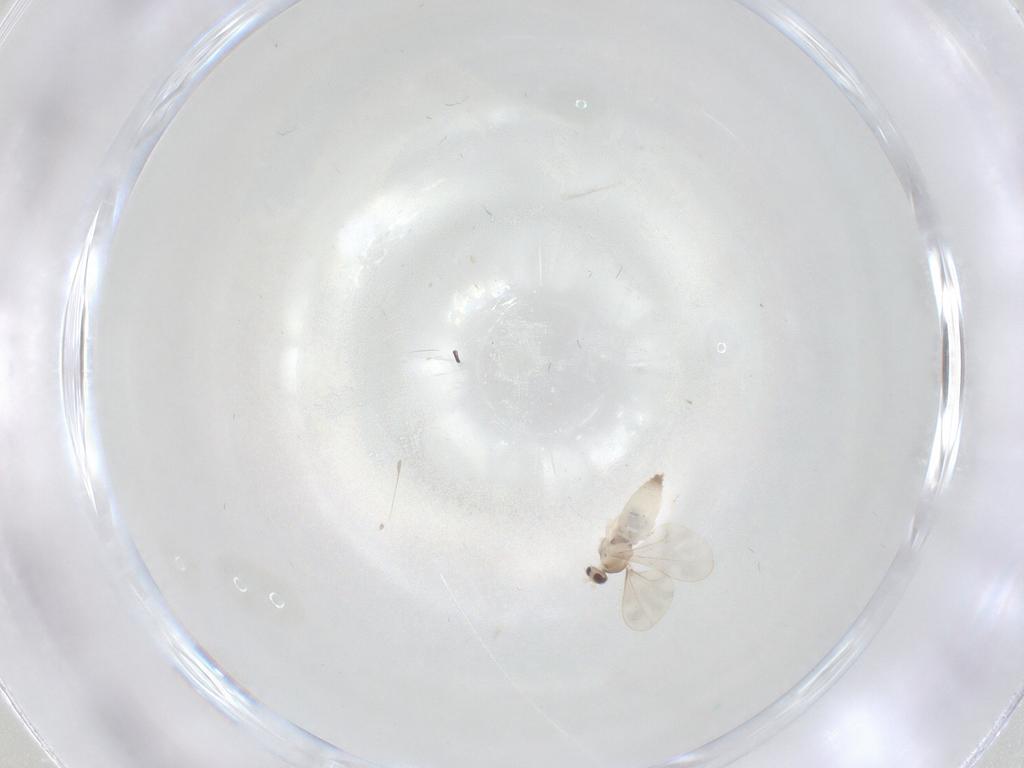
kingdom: Animalia
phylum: Arthropoda
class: Insecta
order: Diptera
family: Cecidomyiidae
